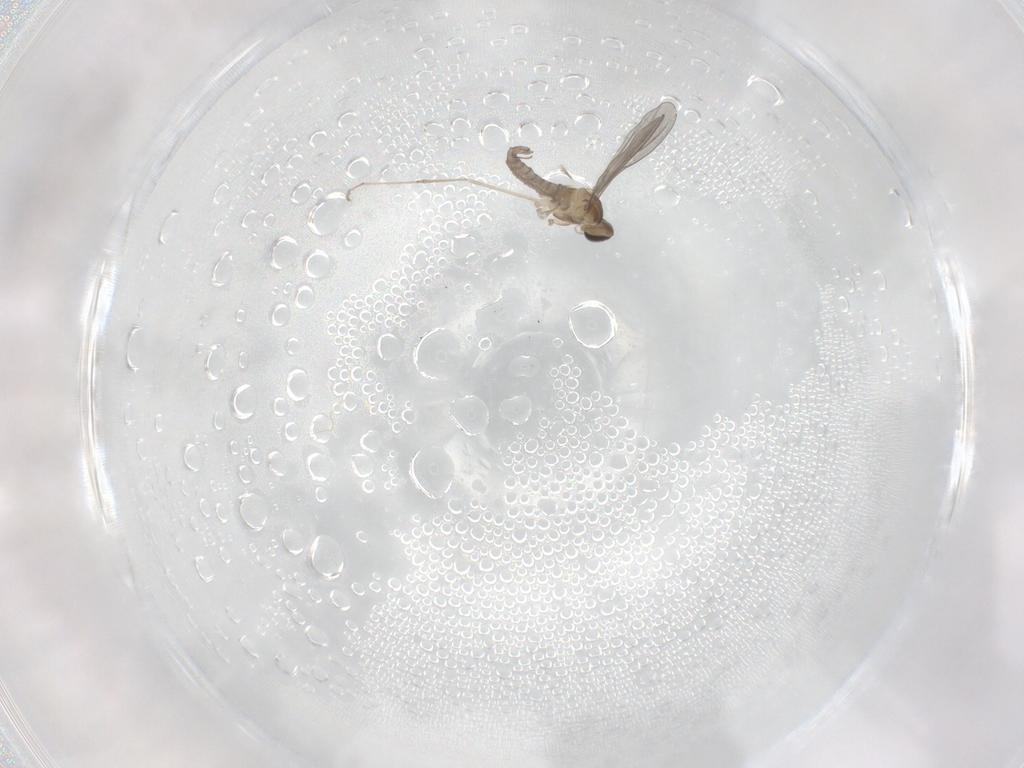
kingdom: Animalia
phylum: Arthropoda
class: Insecta
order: Diptera
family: Cecidomyiidae
